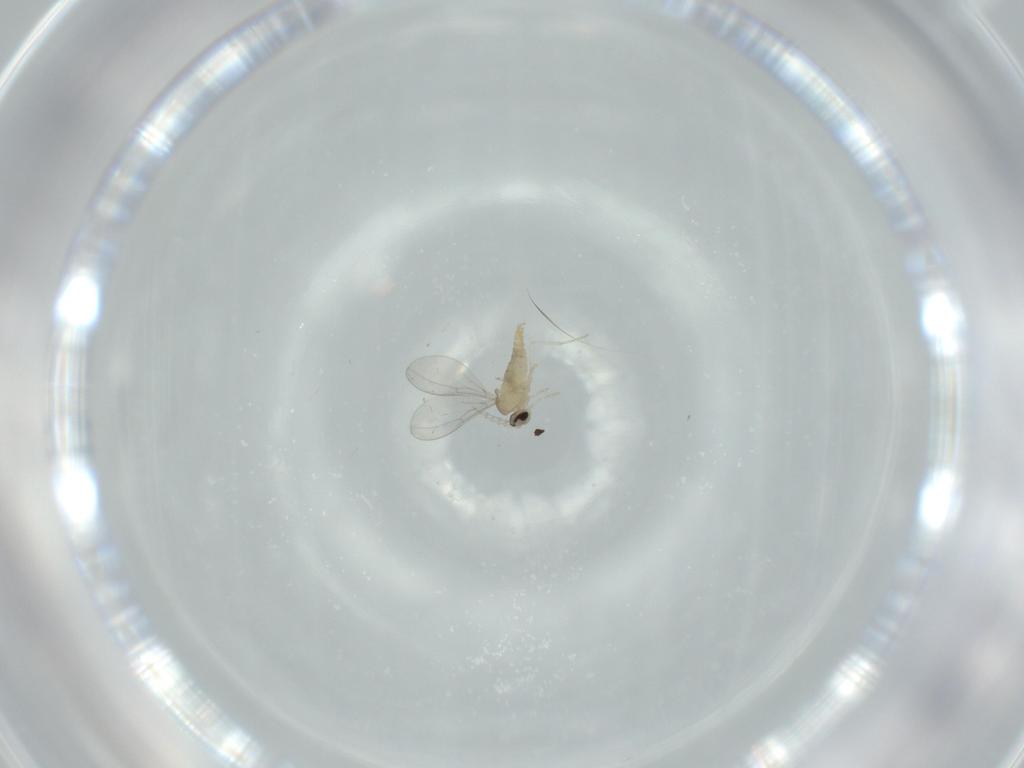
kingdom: Animalia
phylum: Arthropoda
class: Insecta
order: Diptera
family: Cecidomyiidae
